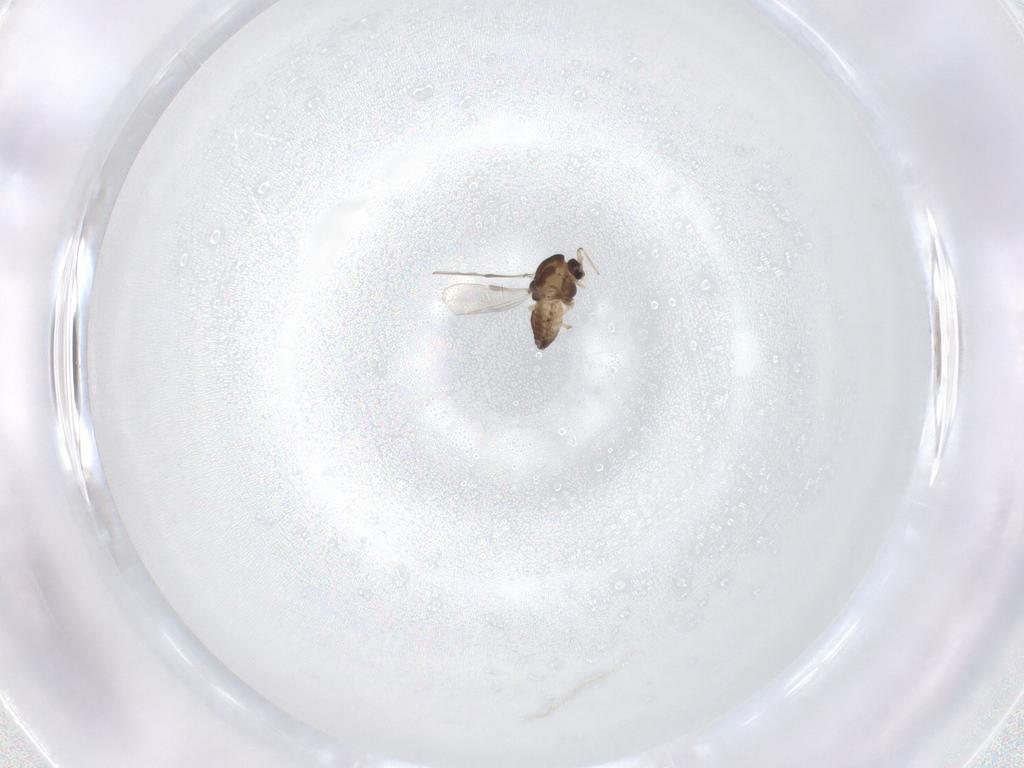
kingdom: Animalia
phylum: Arthropoda
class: Insecta
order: Diptera
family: Chironomidae
